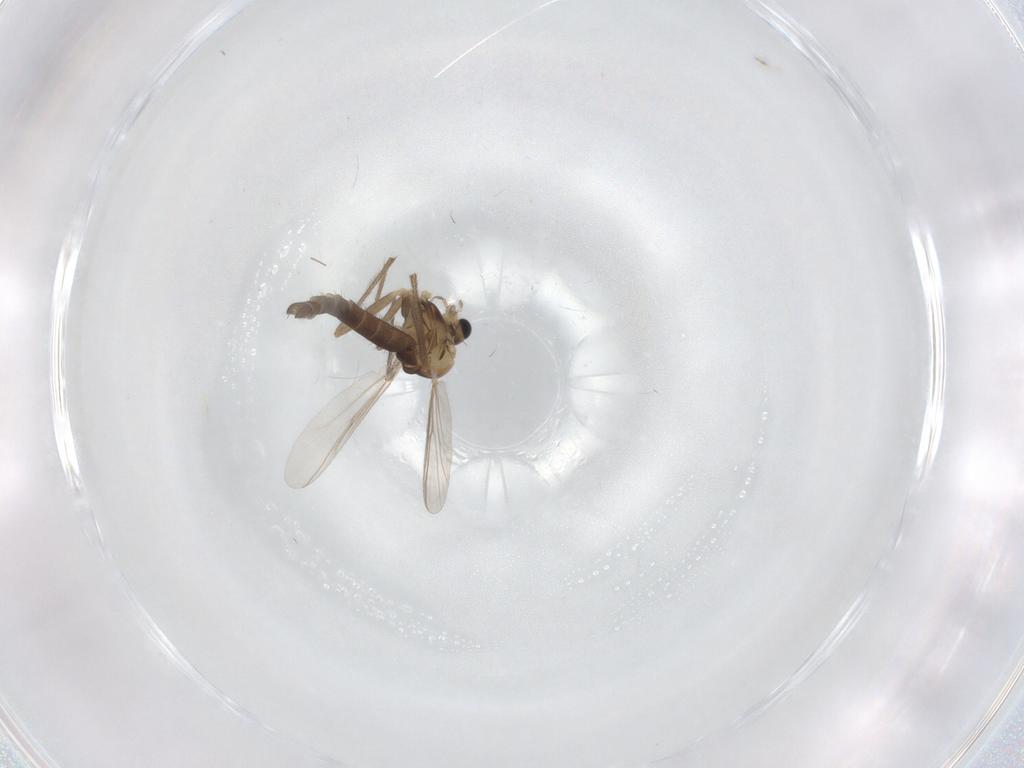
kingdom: Animalia
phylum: Arthropoda
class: Insecta
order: Diptera
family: Chironomidae
